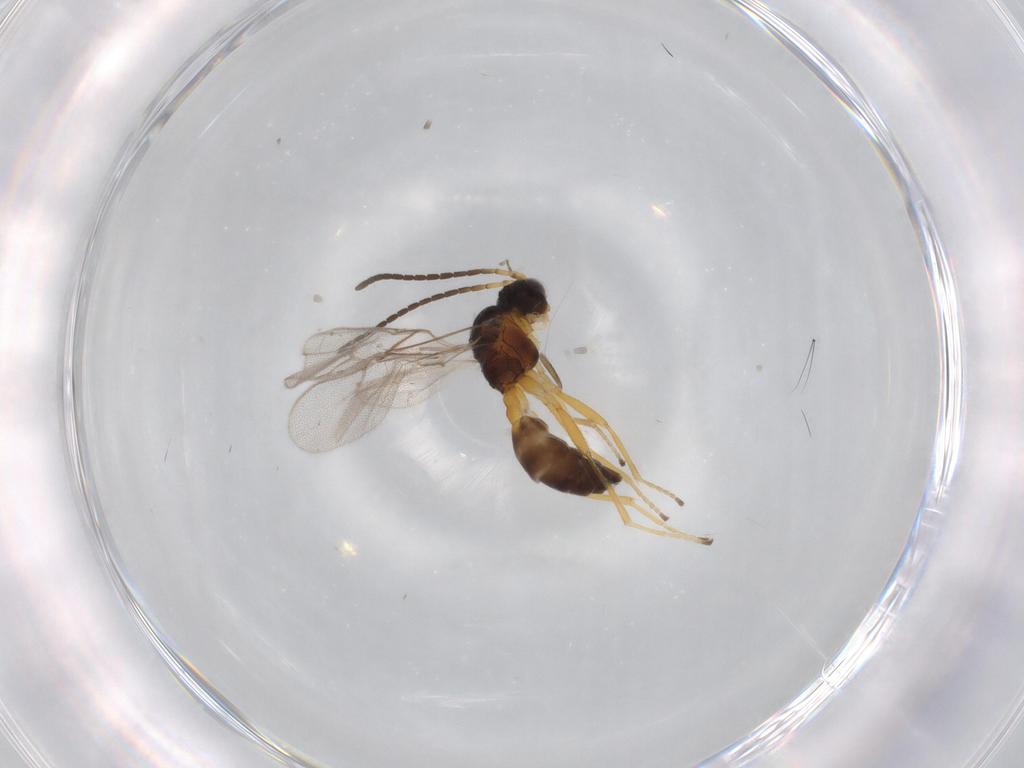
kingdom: Animalia
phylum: Arthropoda
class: Insecta
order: Hymenoptera
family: Braconidae
